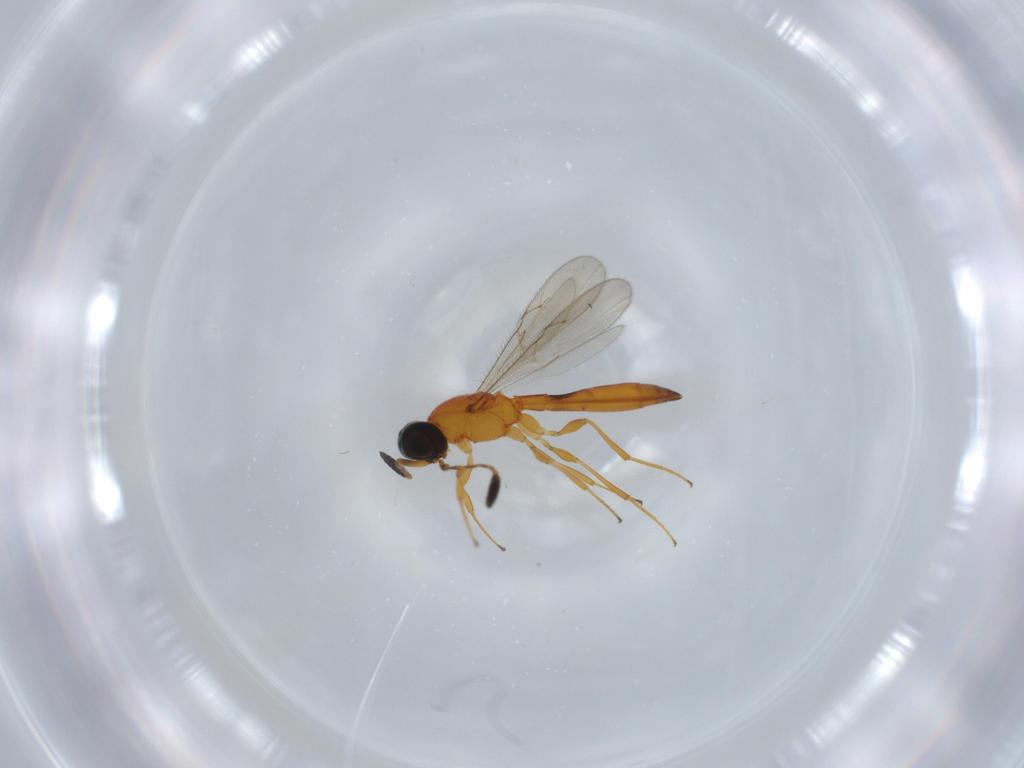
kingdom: Animalia
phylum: Arthropoda
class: Insecta
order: Hymenoptera
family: Scelionidae
